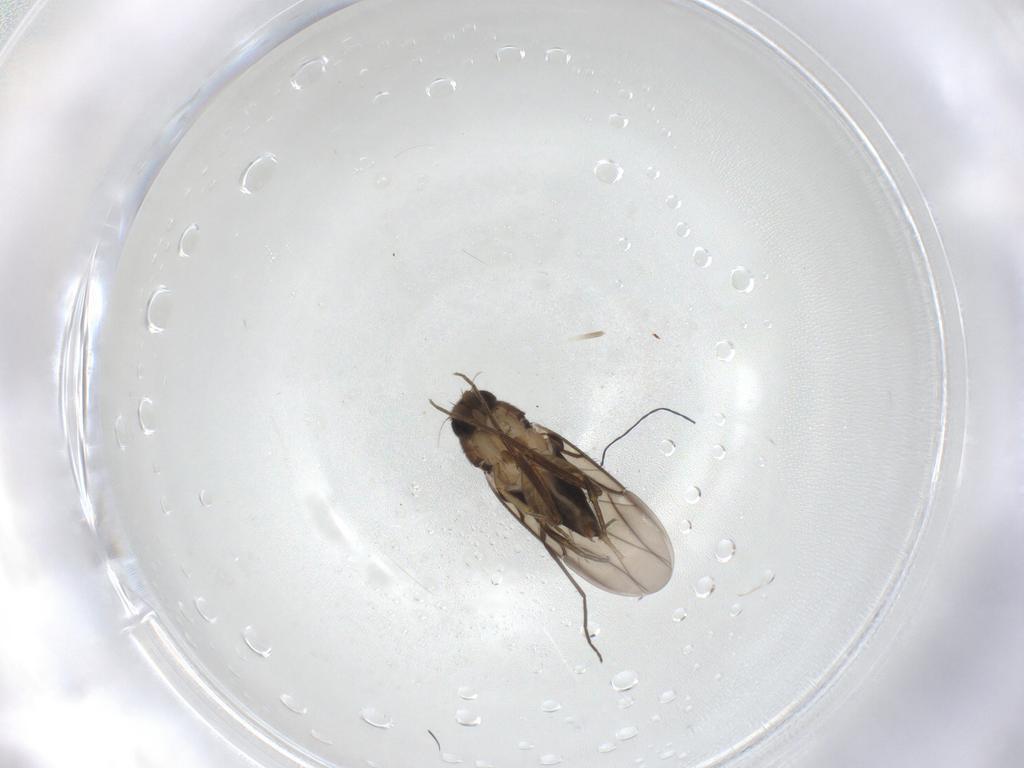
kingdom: Animalia
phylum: Arthropoda
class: Insecta
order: Diptera
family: Phoridae
